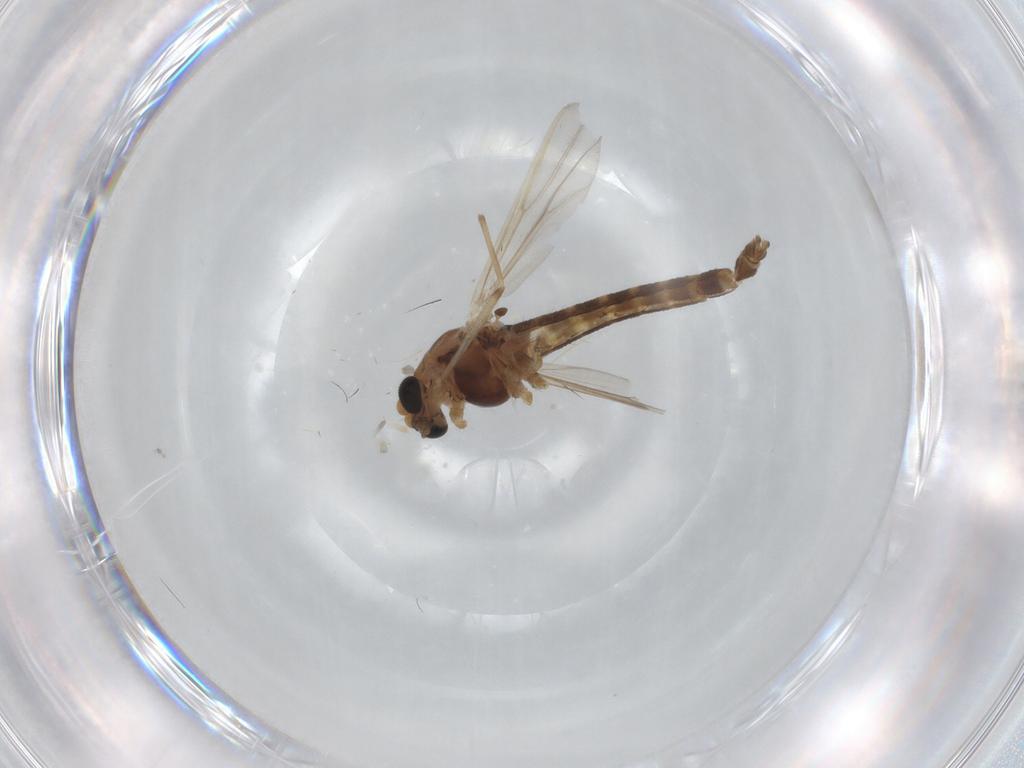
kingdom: Animalia
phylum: Arthropoda
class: Insecta
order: Diptera
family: Psychodidae
